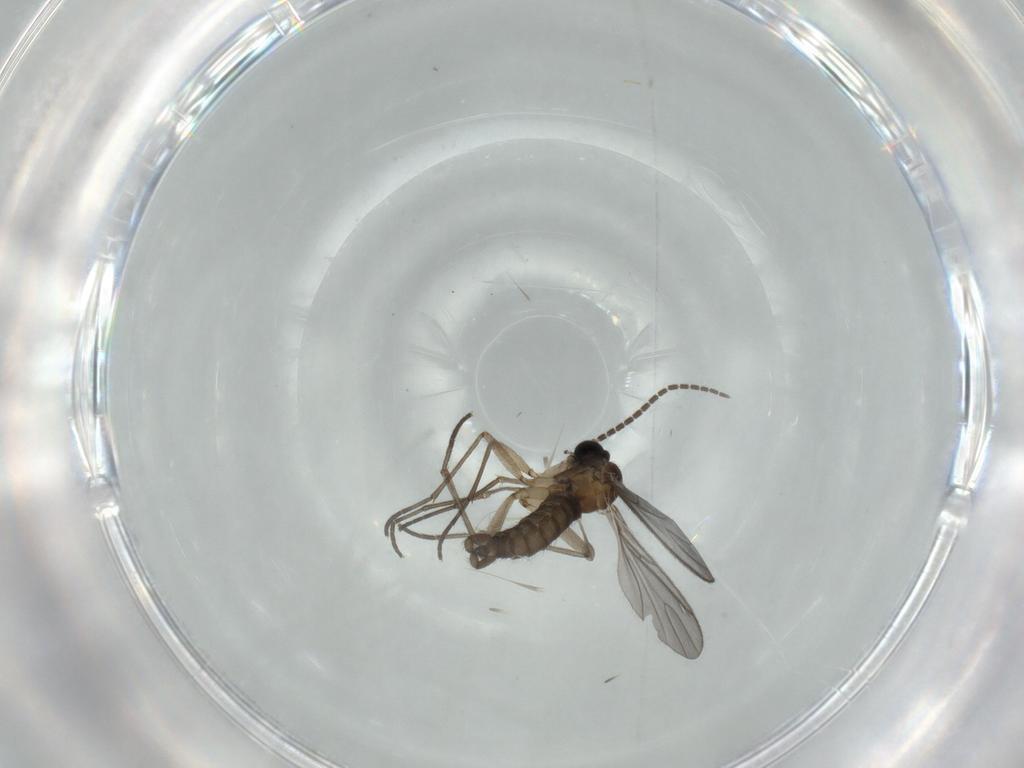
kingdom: Animalia
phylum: Arthropoda
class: Insecta
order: Diptera
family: Sciaridae
